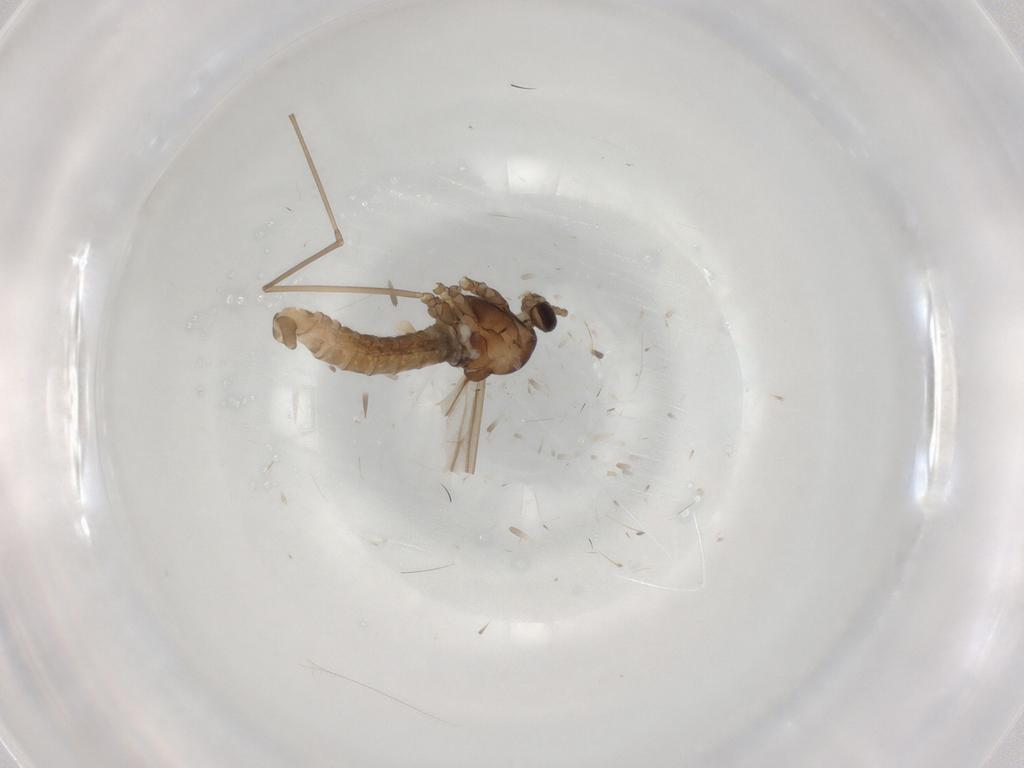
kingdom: Animalia
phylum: Arthropoda
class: Insecta
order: Diptera
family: Cecidomyiidae
